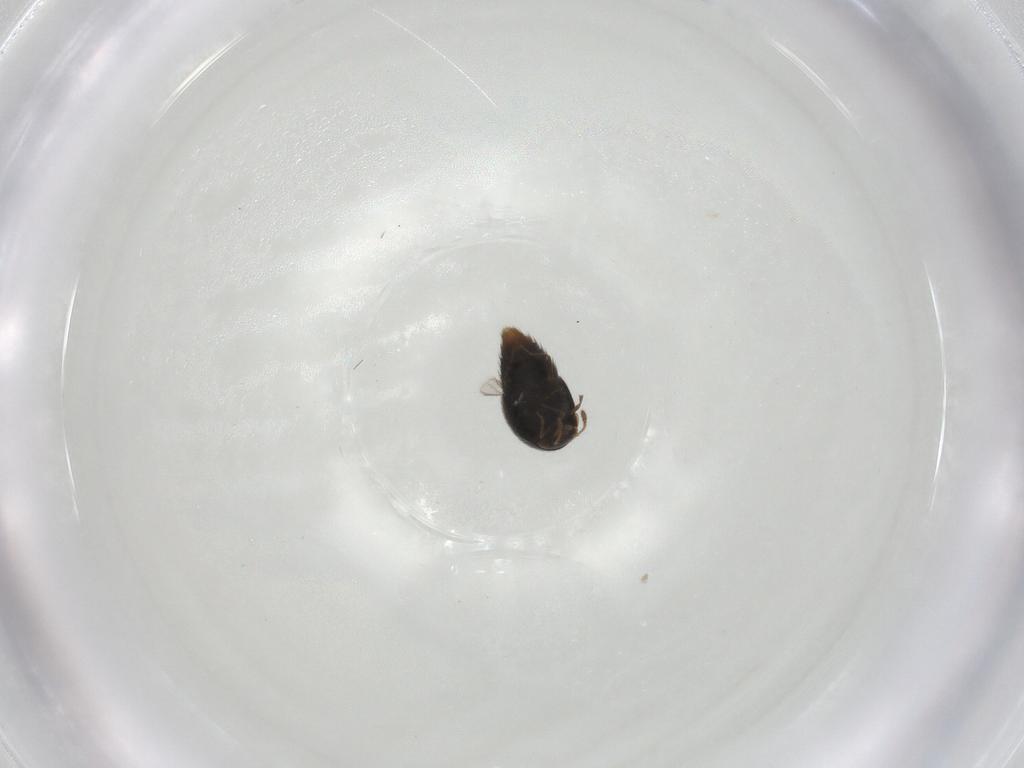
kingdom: Animalia
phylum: Arthropoda
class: Insecta
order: Coleoptera
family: Staphylinidae
